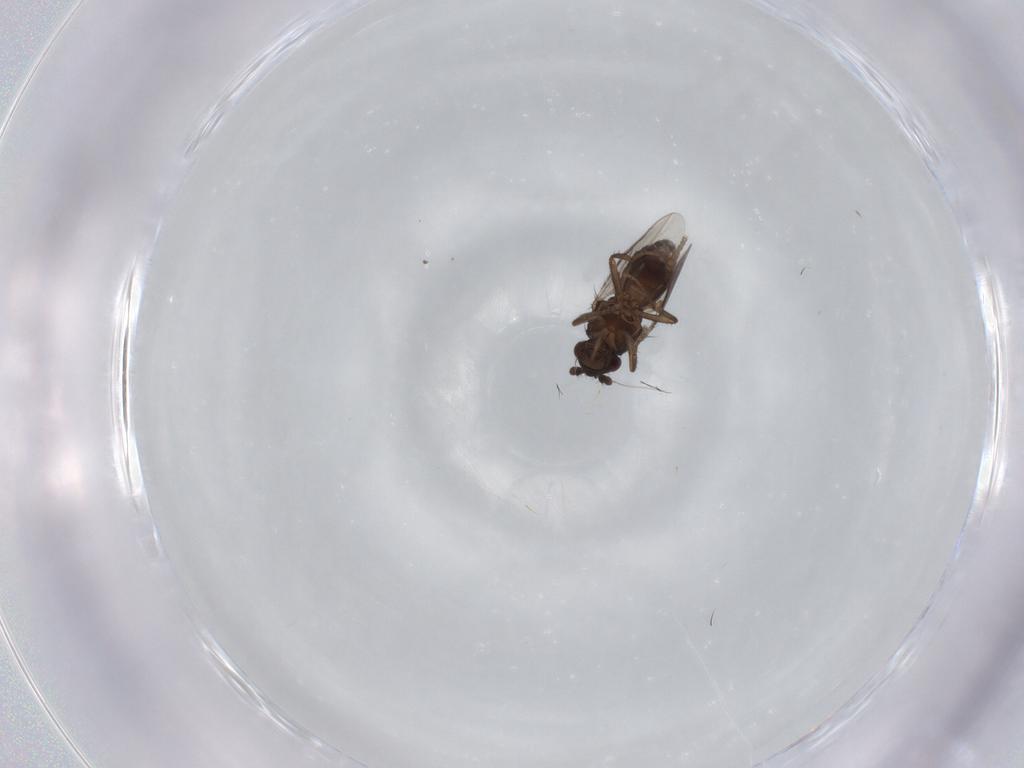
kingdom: Animalia
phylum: Arthropoda
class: Insecta
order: Diptera
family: Sphaeroceridae
